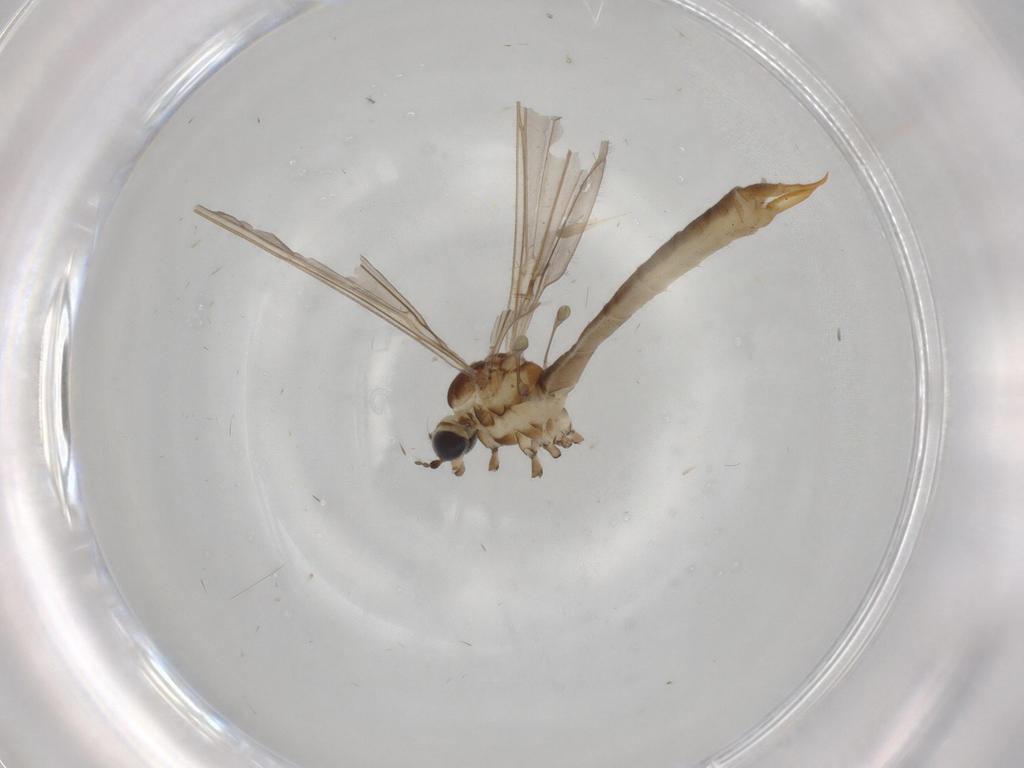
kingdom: Animalia
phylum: Arthropoda
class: Insecta
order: Diptera
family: Limoniidae
